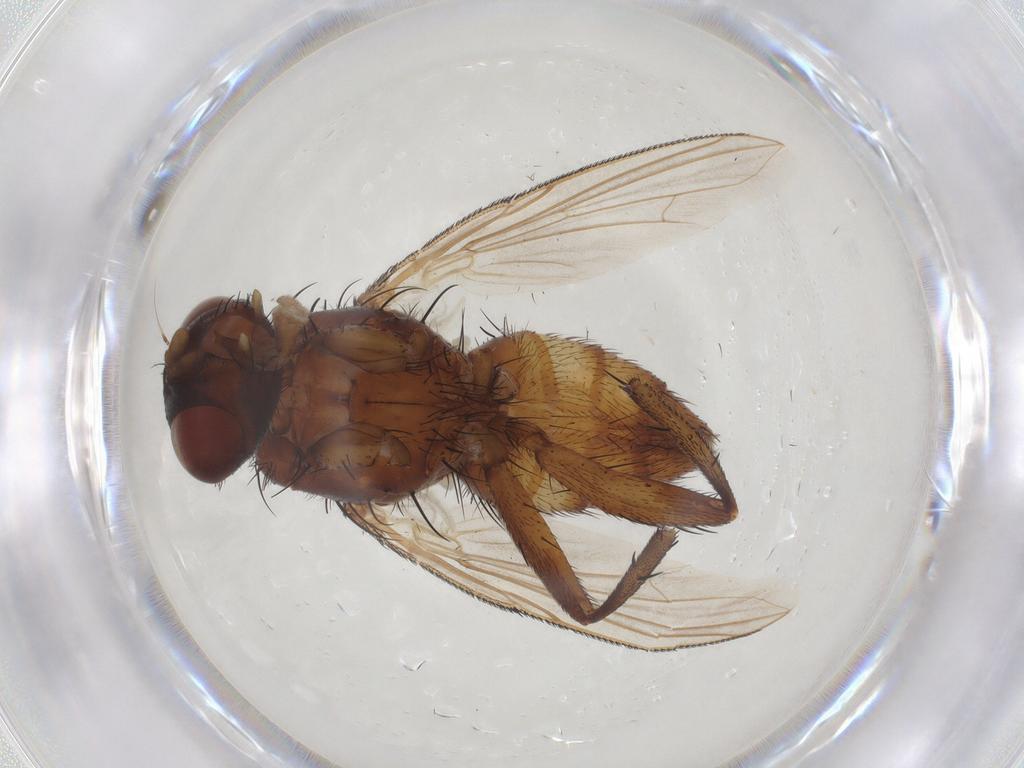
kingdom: Animalia
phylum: Arthropoda
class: Insecta
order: Diptera
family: Calliphoridae
